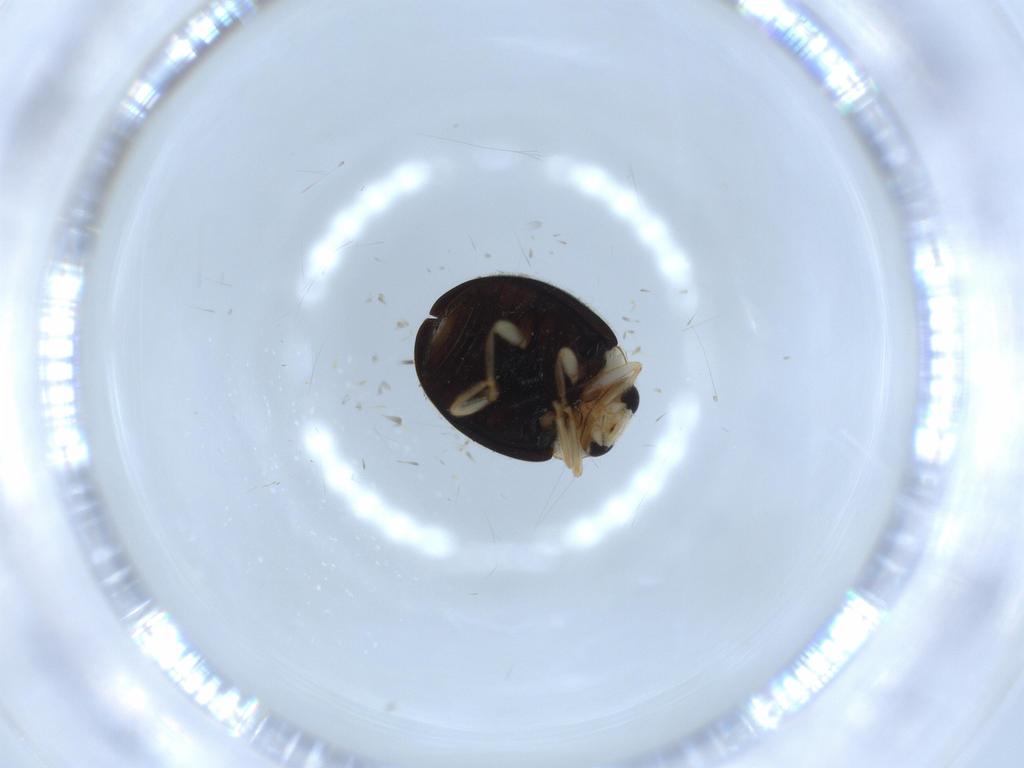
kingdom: Animalia
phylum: Arthropoda
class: Insecta
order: Coleoptera
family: Coccinellidae
